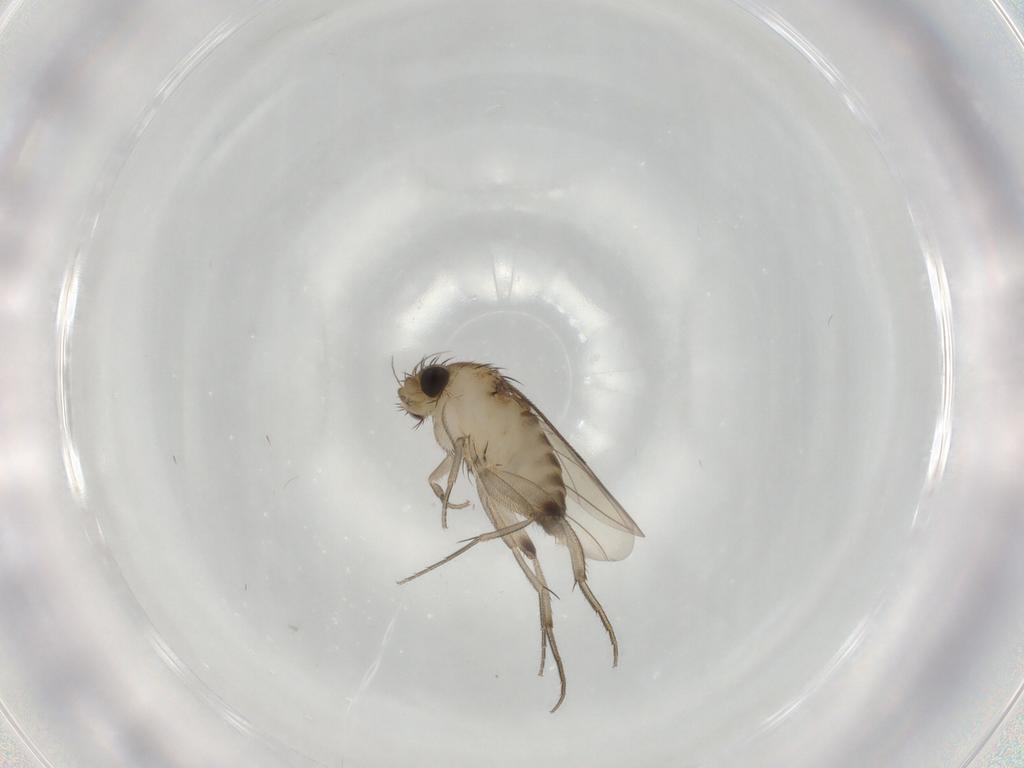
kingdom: Animalia
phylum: Arthropoda
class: Insecta
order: Diptera
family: Phoridae
